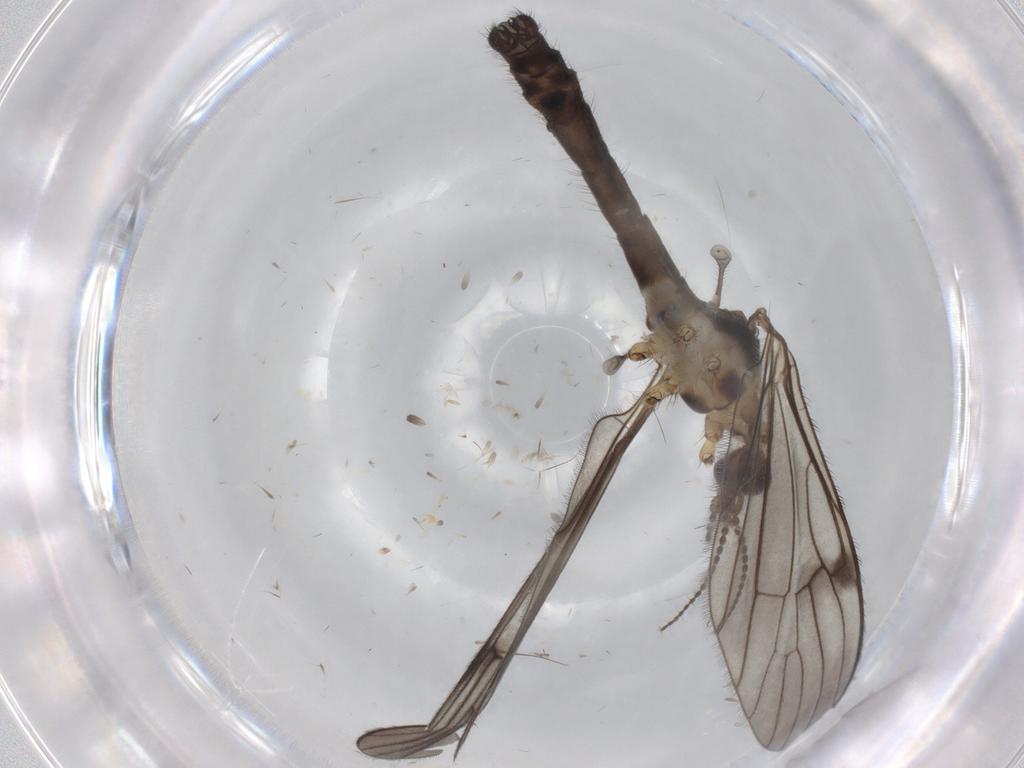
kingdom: Animalia
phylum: Arthropoda
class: Insecta
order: Diptera
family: Limoniidae
